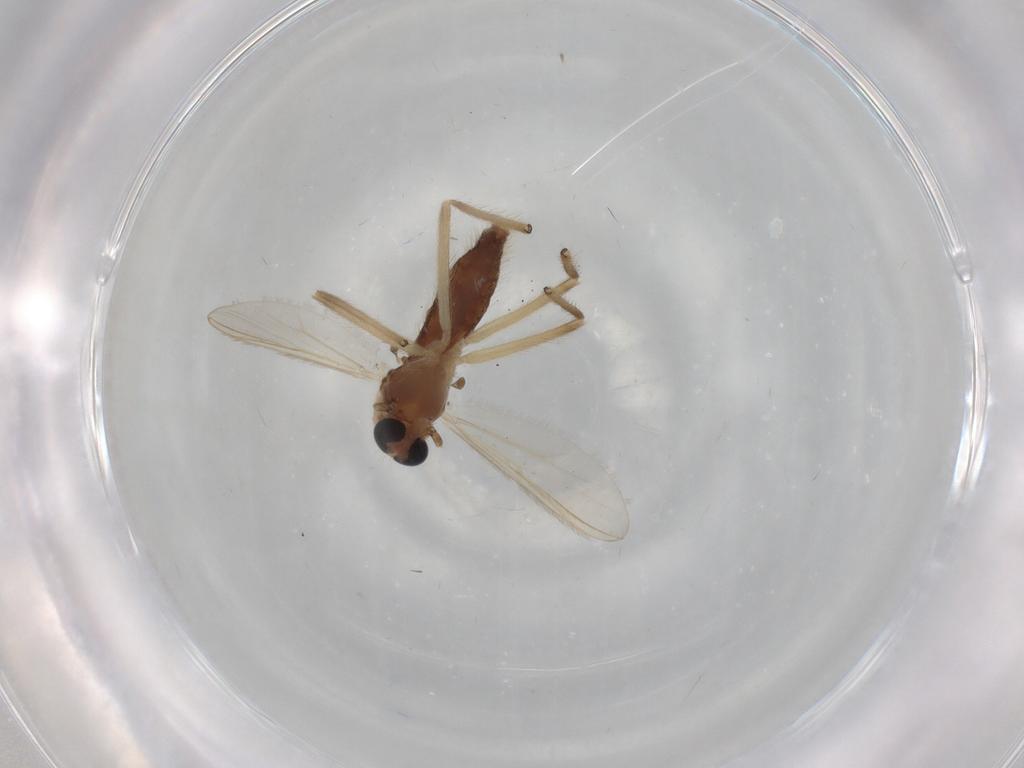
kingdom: Animalia
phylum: Arthropoda
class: Insecta
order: Diptera
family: Chironomidae
